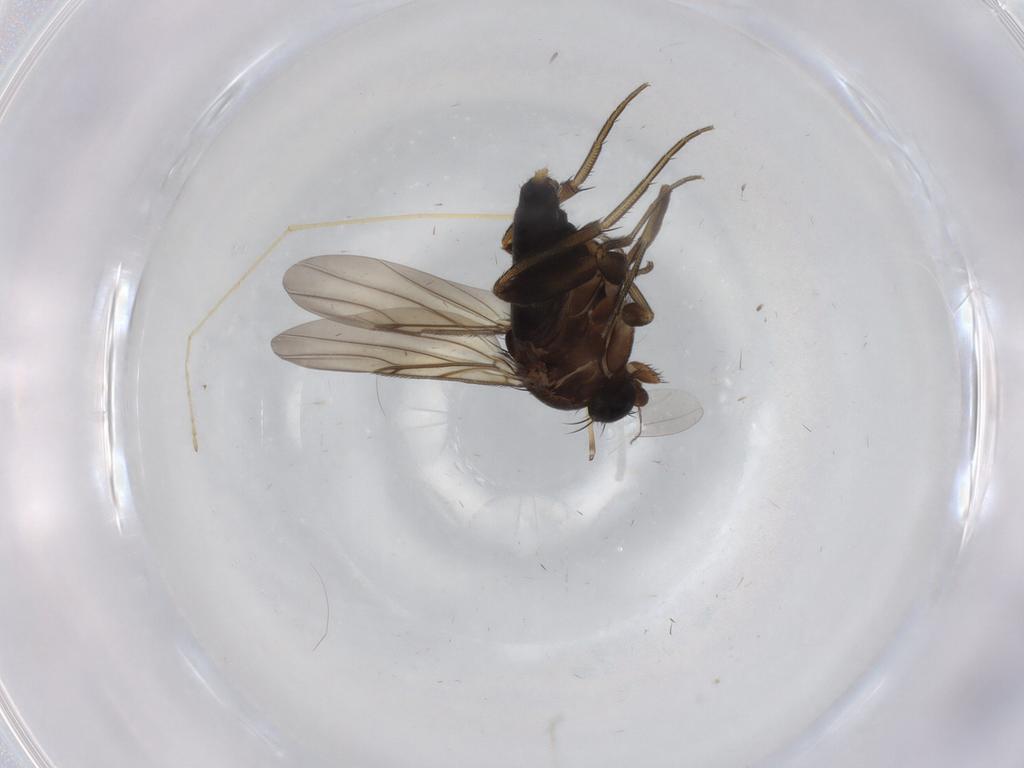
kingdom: Animalia
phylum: Arthropoda
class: Insecta
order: Diptera
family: Phoridae
